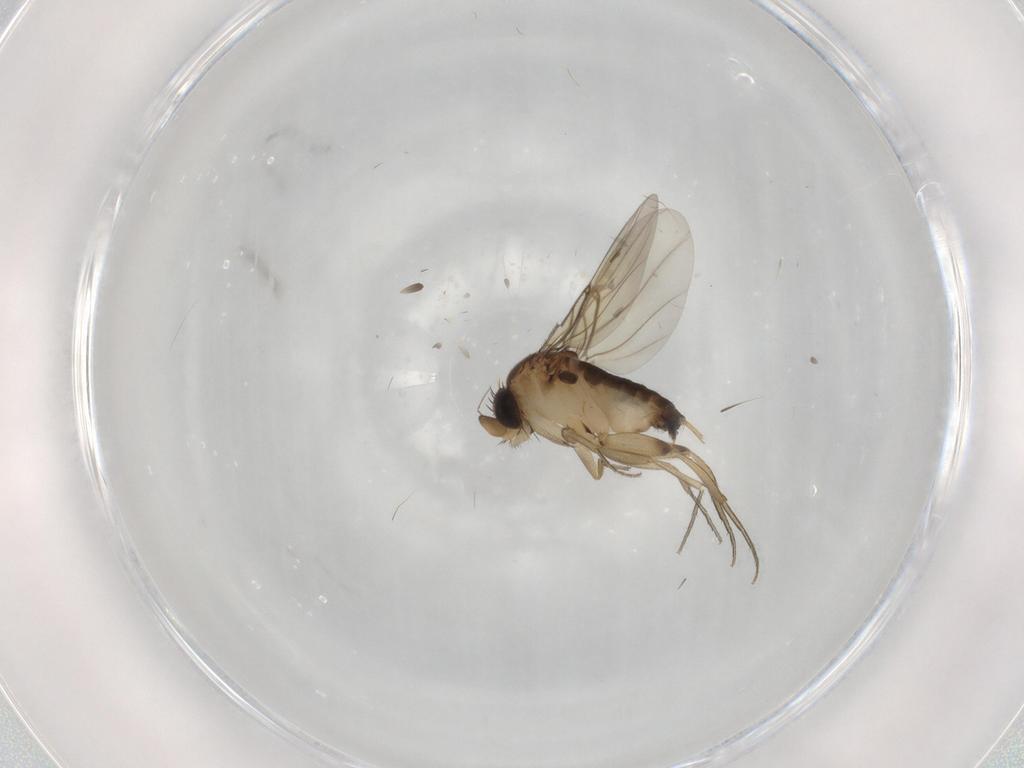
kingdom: Animalia
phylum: Arthropoda
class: Insecta
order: Diptera
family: Phoridae
